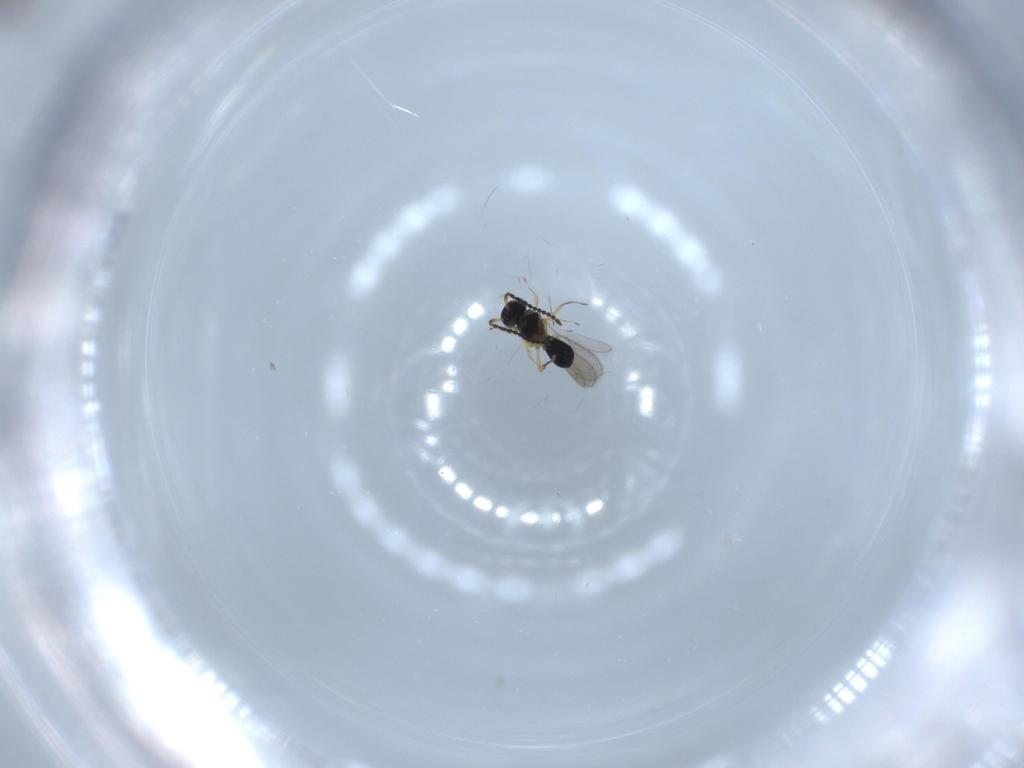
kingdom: Animalia
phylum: Arthropoda
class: Insecta
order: Hymenoptera
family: Scelionidae
